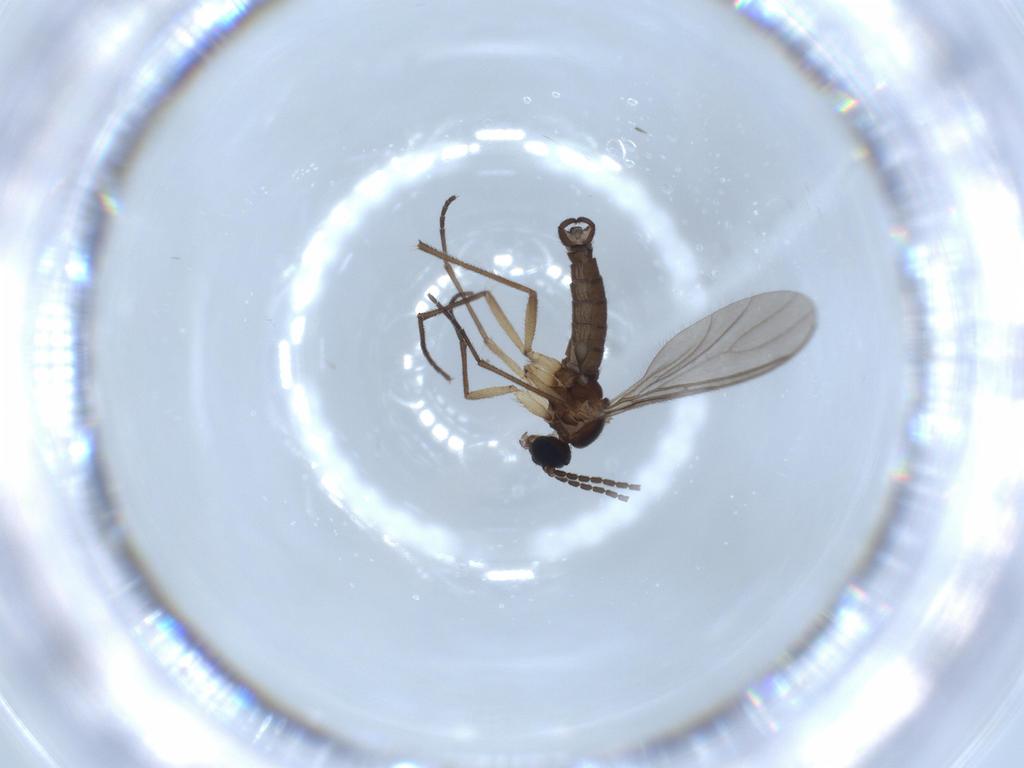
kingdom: Animalia
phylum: Arthropoda
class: Insecta
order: Diptera
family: Sciaridae
